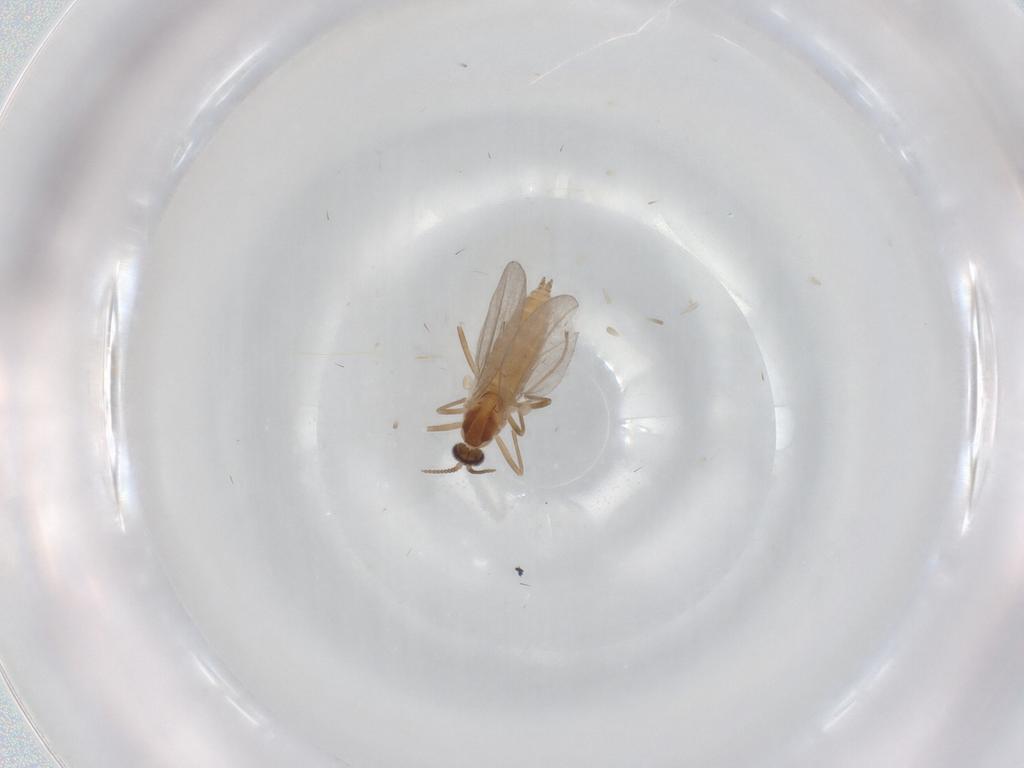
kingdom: Animalia
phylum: Arthropoda
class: Insecta
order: Diptera
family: Cecidomyiidae
